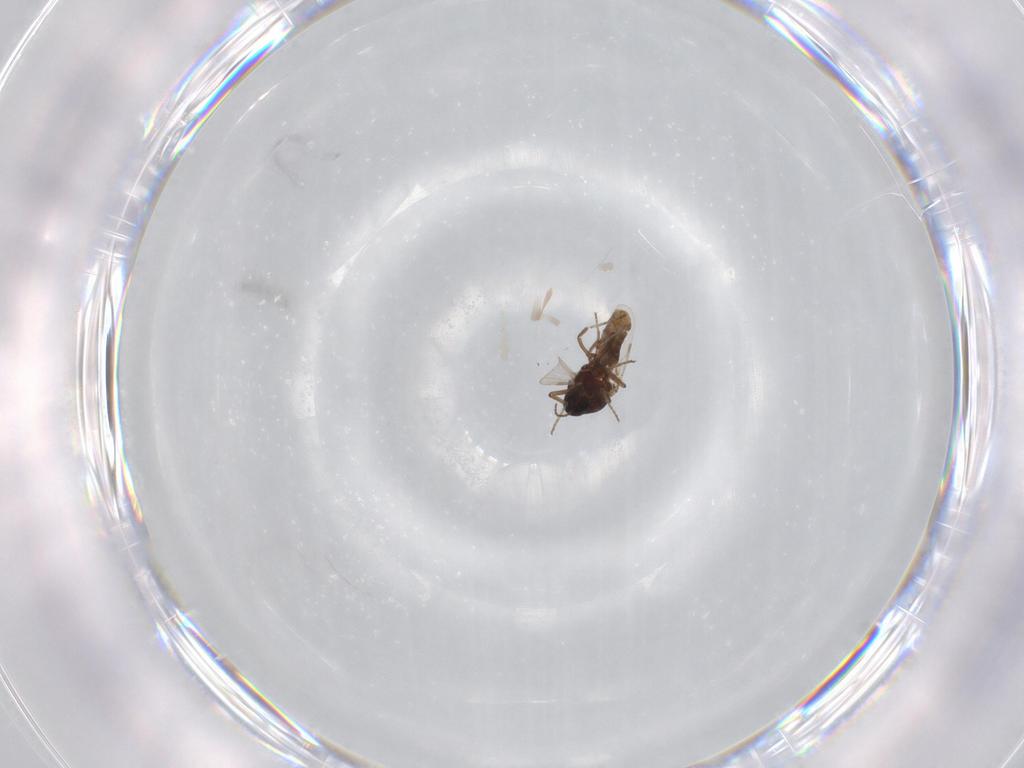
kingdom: Animalia
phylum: Arthropoda
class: Insecta
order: Diptera
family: Ceratopogonidae
